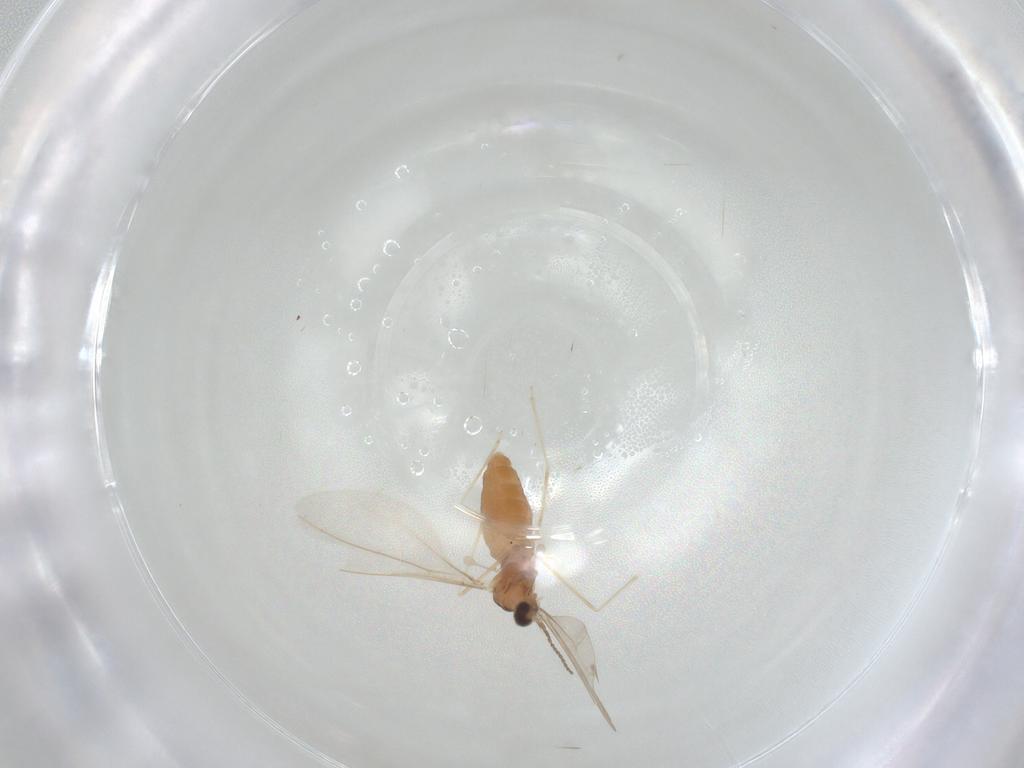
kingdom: Animalia
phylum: Arthropoda
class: Insecta
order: Diptera
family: Cecidomyiidae
